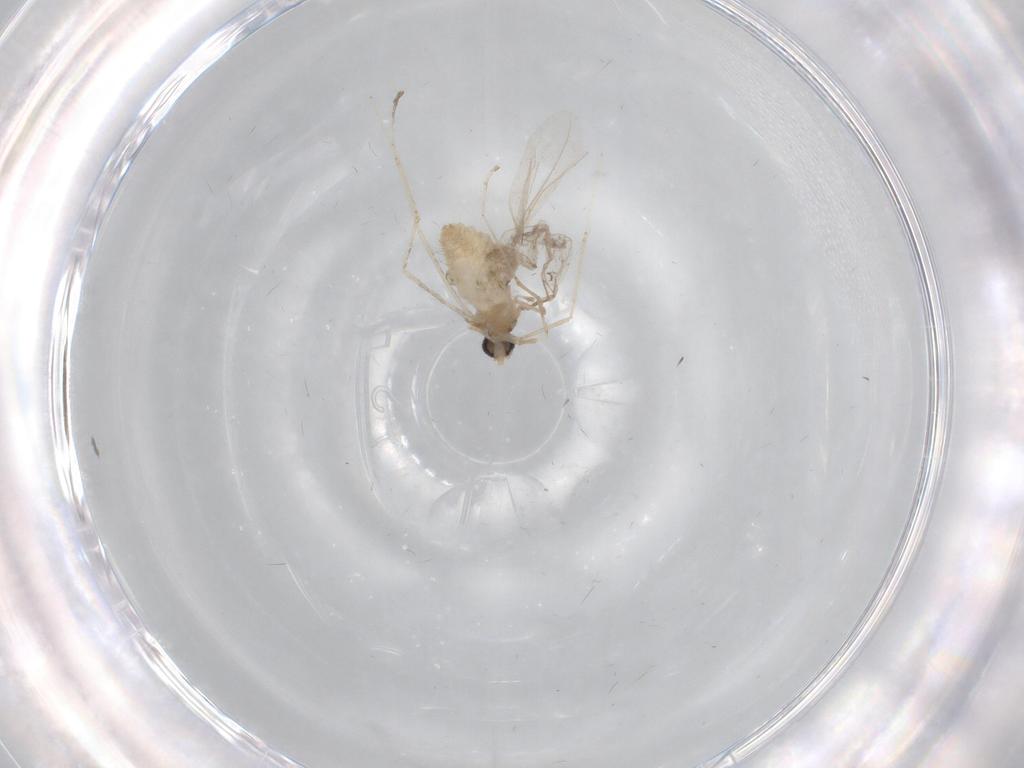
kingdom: Animalia
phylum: Arthropoda
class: Insecta
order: Diptera
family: Cecidomyiidae
